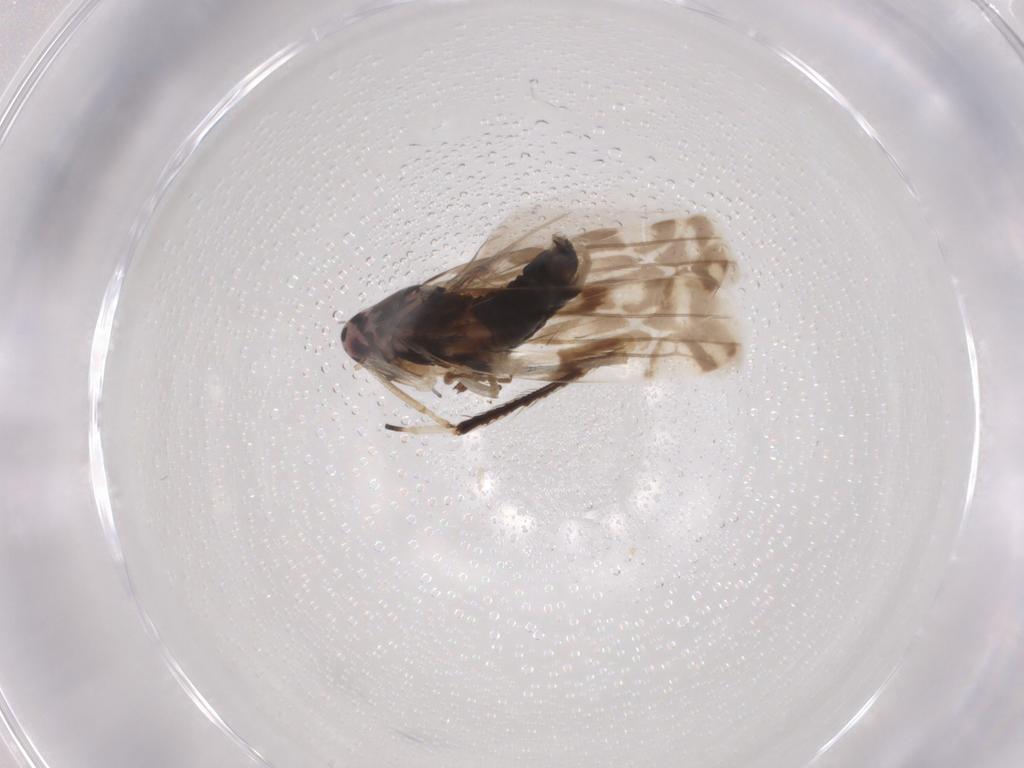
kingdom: Animalia
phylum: Arthropoda
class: Insecta
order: Hemiptera
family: Cicadellidae
